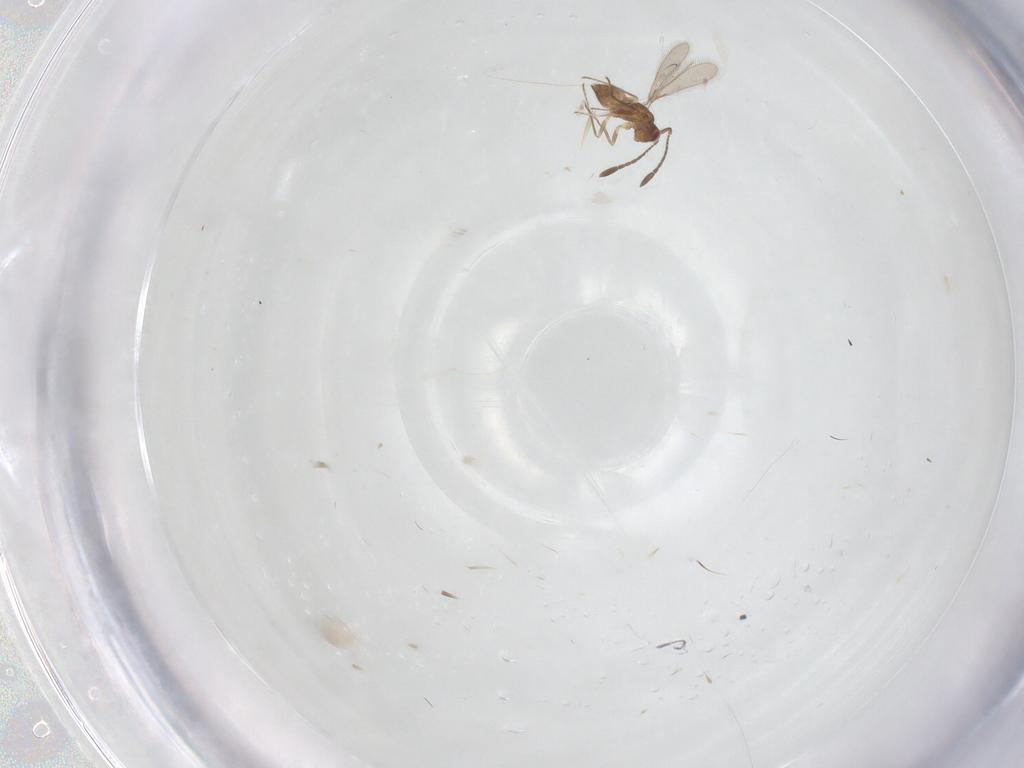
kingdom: Animalia
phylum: Arthropoda
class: Insecta
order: Hymenoptera
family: Mymaridae
